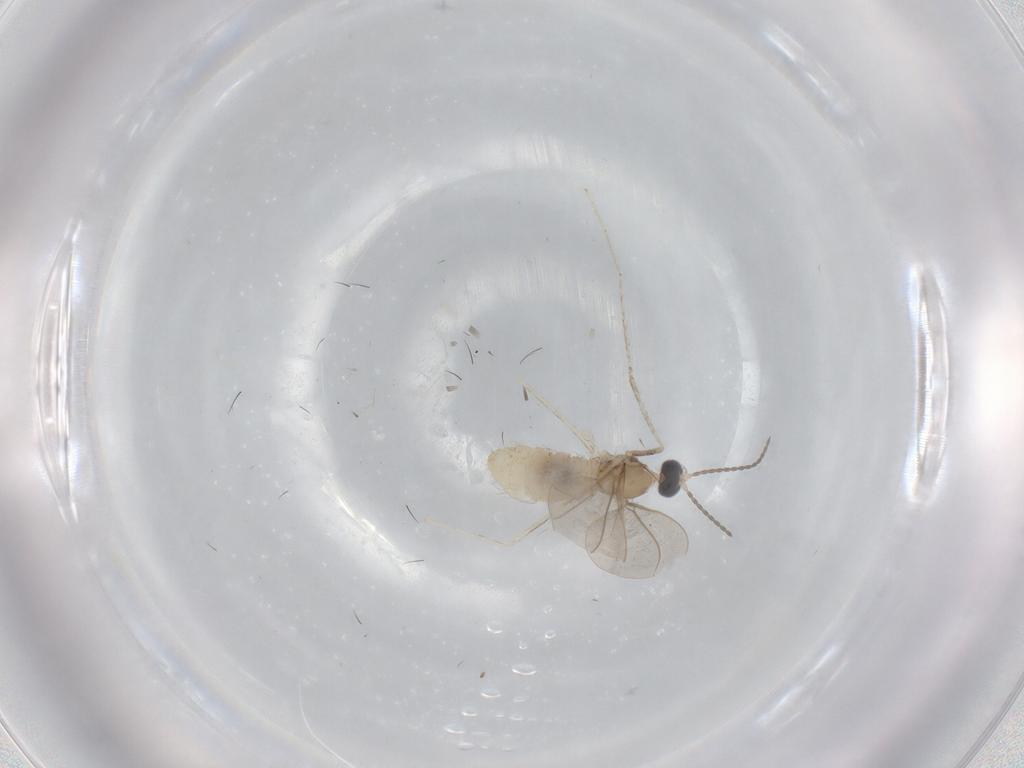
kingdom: Animalia
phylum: Arthropoda
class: Insecta
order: Diptera
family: Cecidomyiidae
